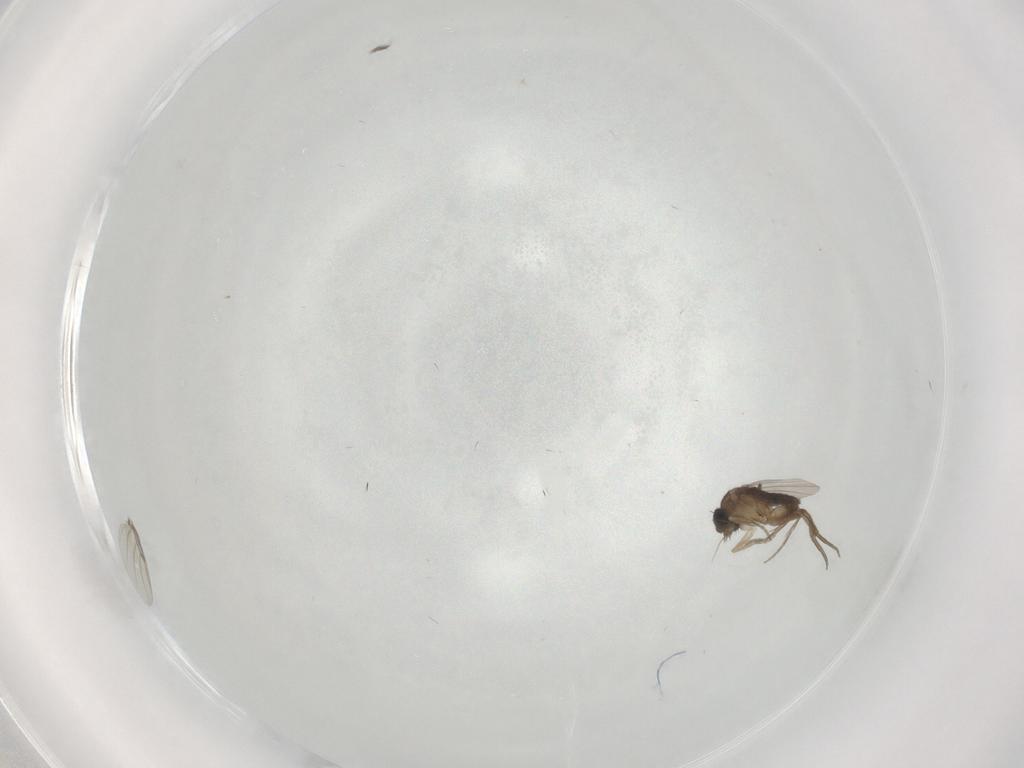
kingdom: Animalia
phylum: Arthropoda
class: Insecta
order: Diptera
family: Phoridae
